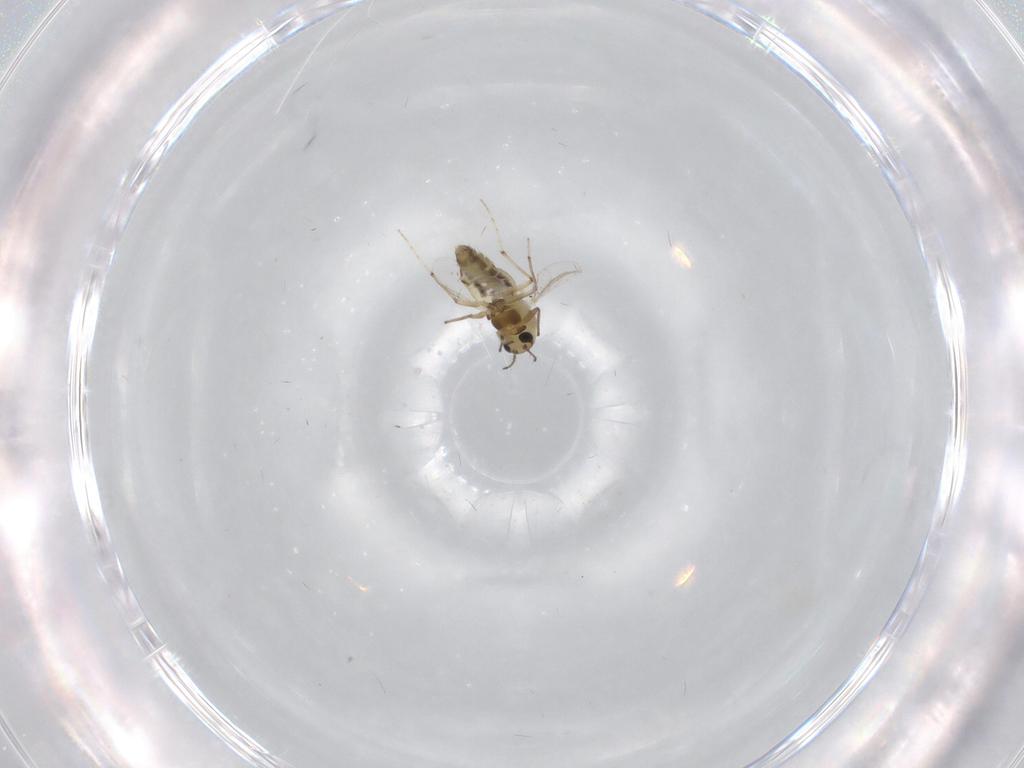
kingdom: Animalia
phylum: Arthropoda
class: Insecta
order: Diptera
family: Chironomidae
